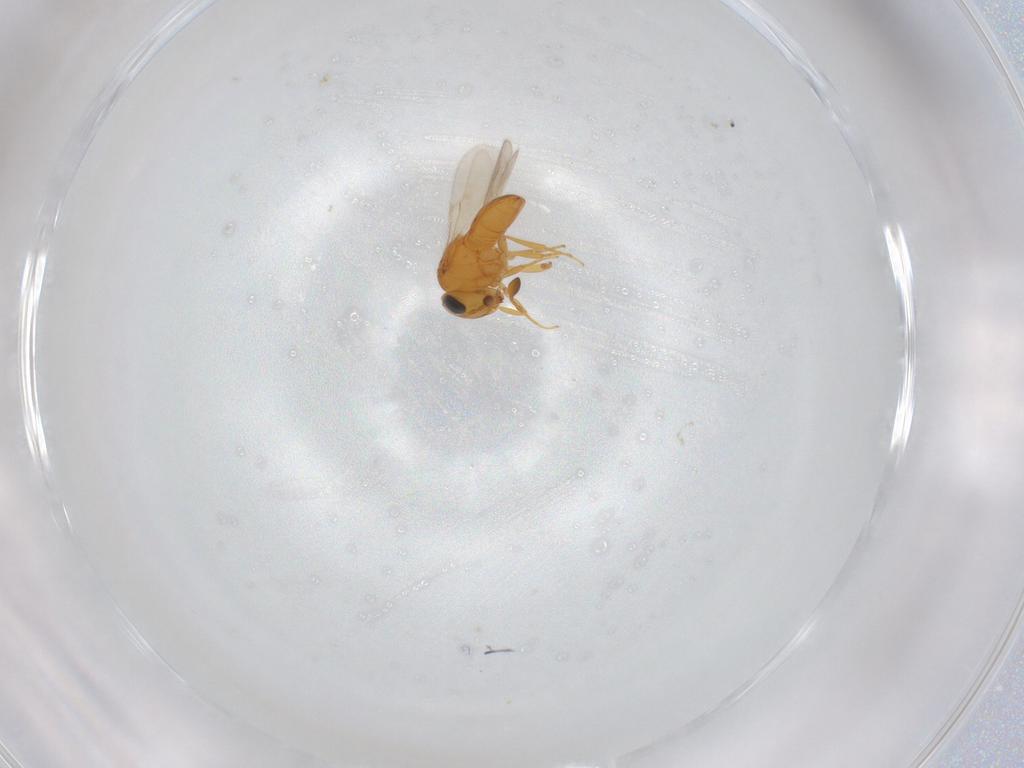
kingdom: Animalia
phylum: Arthropoda
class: Insecta
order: Hymenoptera
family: Scelionidae
